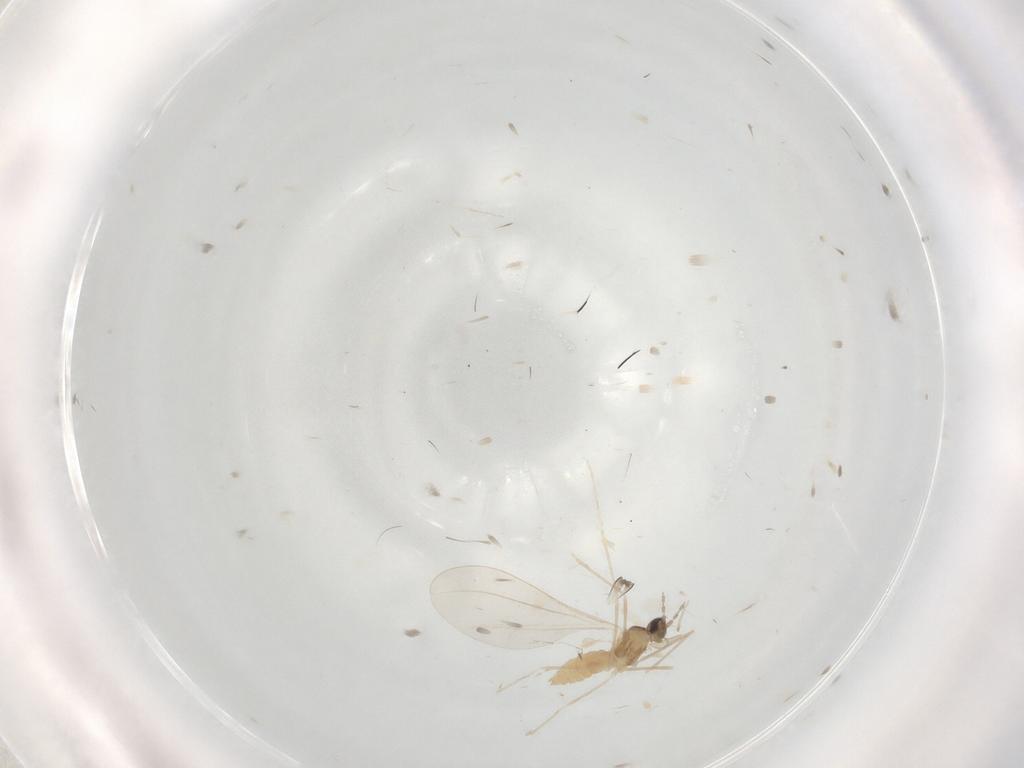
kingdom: Animalia
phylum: Arthropoda
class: Insecta
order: Diptera
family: Cecidomyiidae
